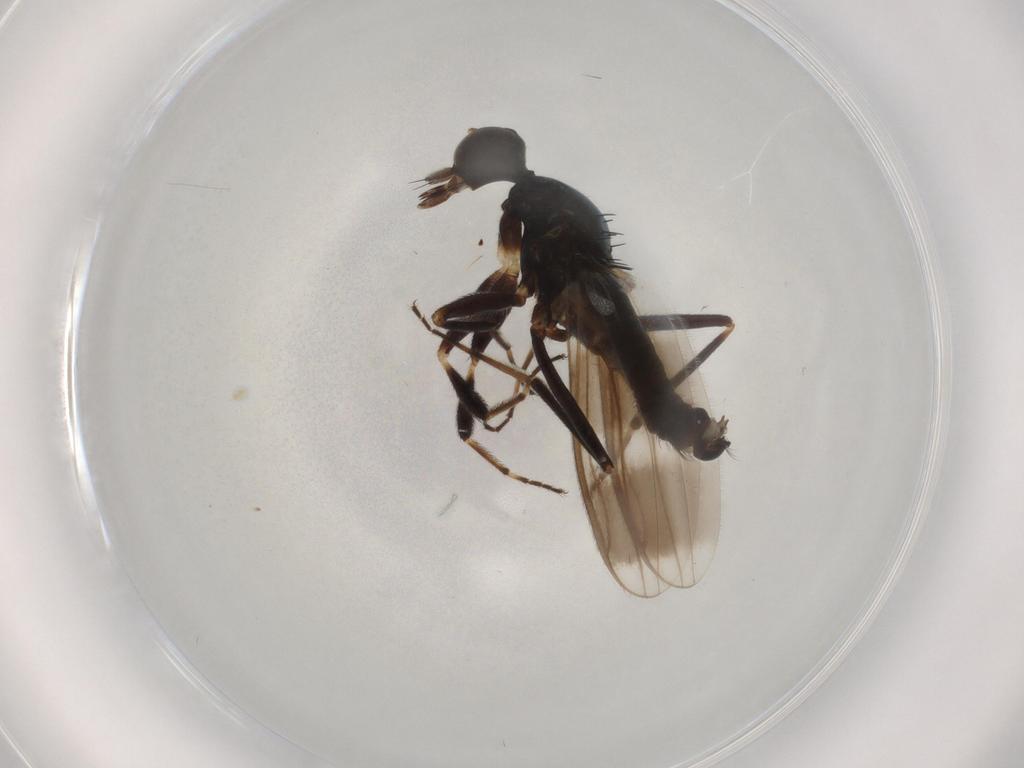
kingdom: Animalia
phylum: Arthropoda
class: Insecta
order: Diptera
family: Hybotidae
